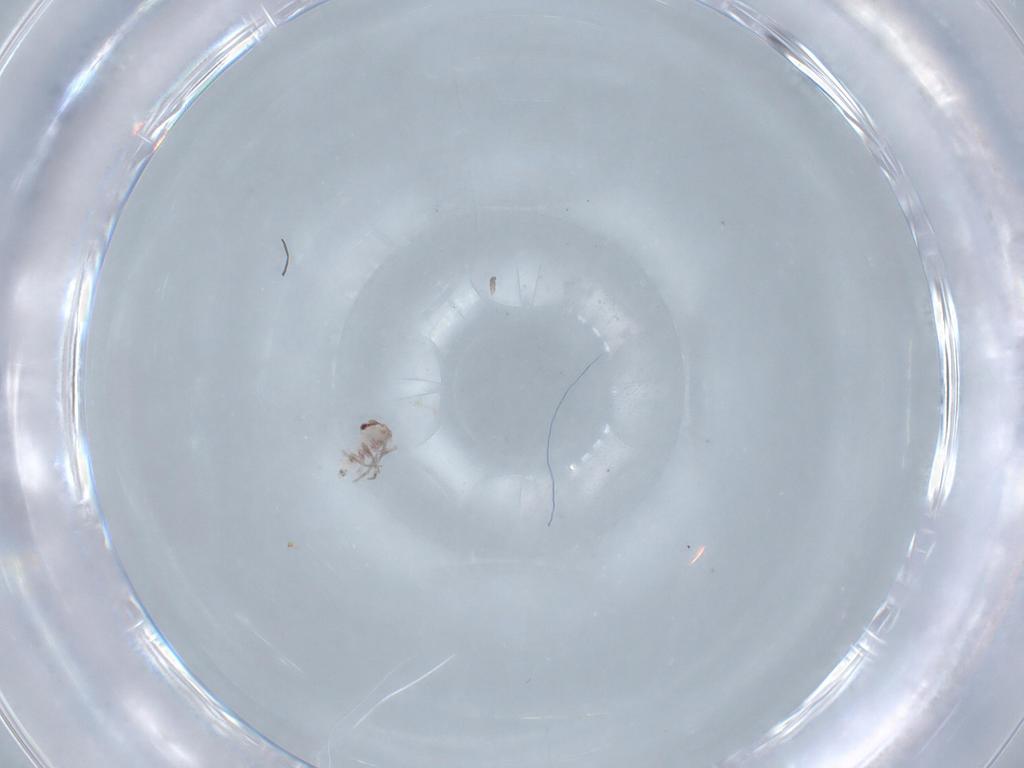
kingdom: Animalia
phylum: Arthropoda
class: Insecta
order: Psocodea
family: Lepidopsocidae
